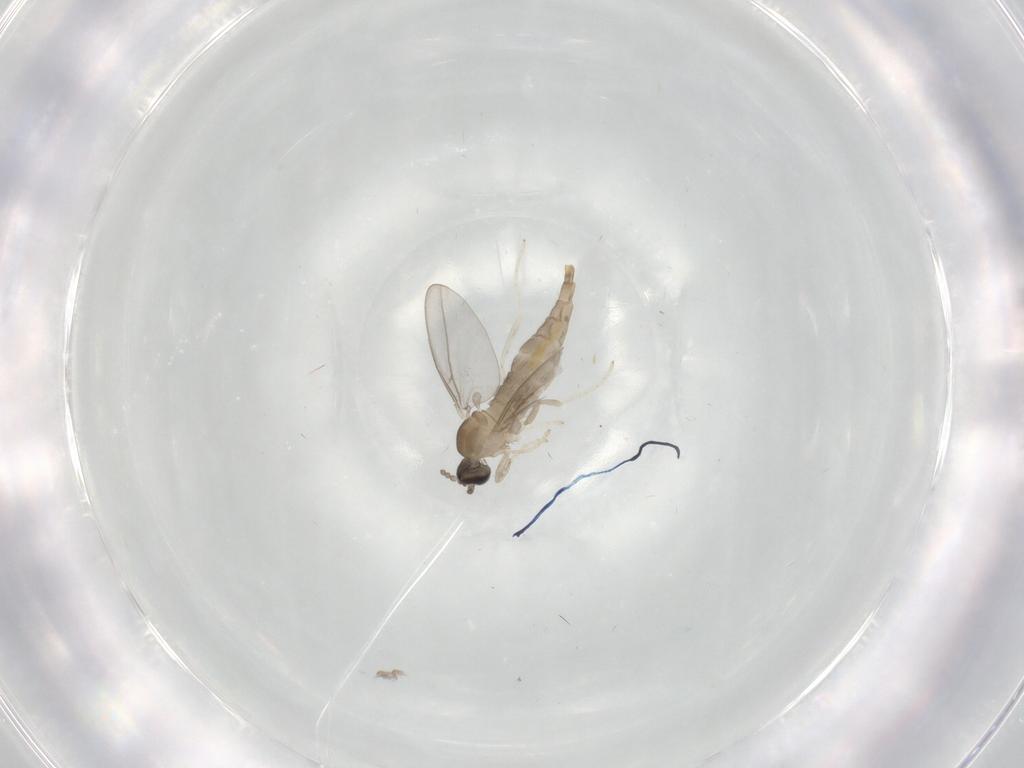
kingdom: Animalia
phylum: Arthropoda
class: Insecta
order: Diptera
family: Cecidomyiidae
